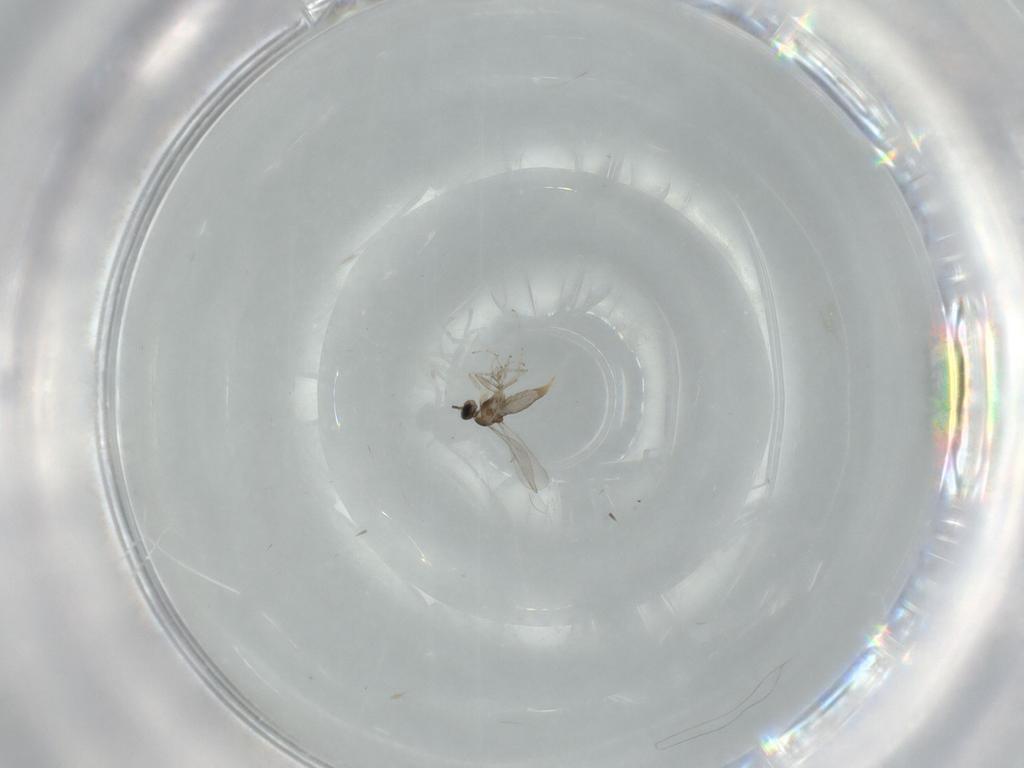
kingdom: Animalia
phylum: Arthropoda
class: Insecta
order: Diptera
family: Cecidomyiidae
